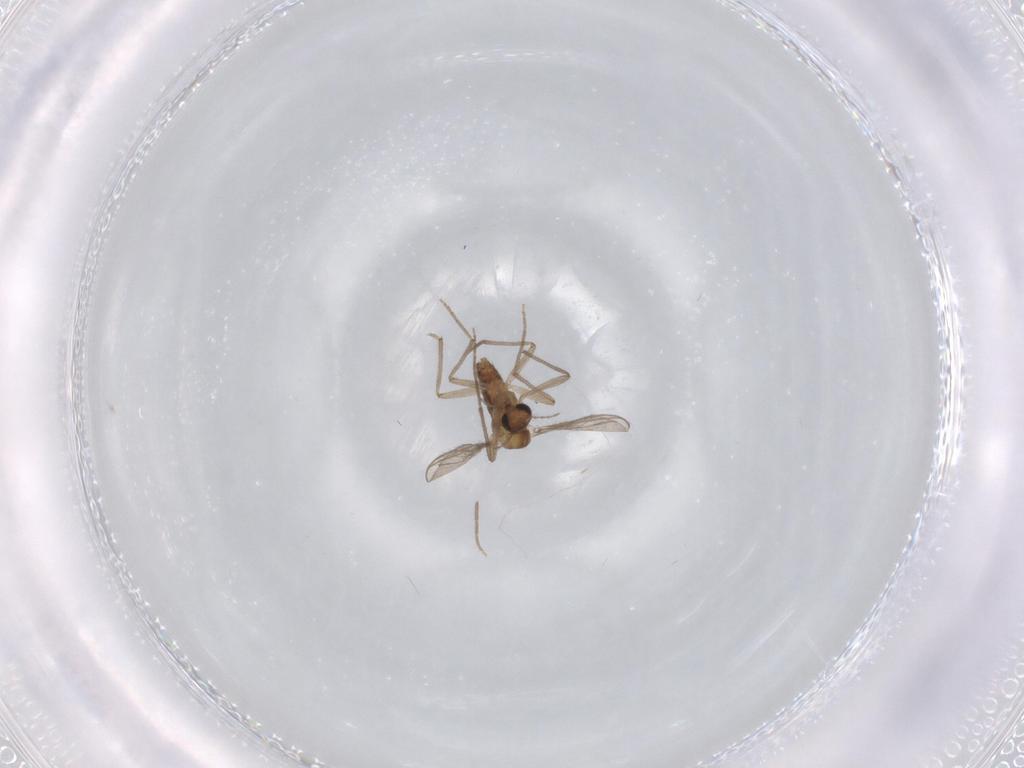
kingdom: Animalia
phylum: Arthropoda
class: Insecta
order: Diptera
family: Chironomidae
